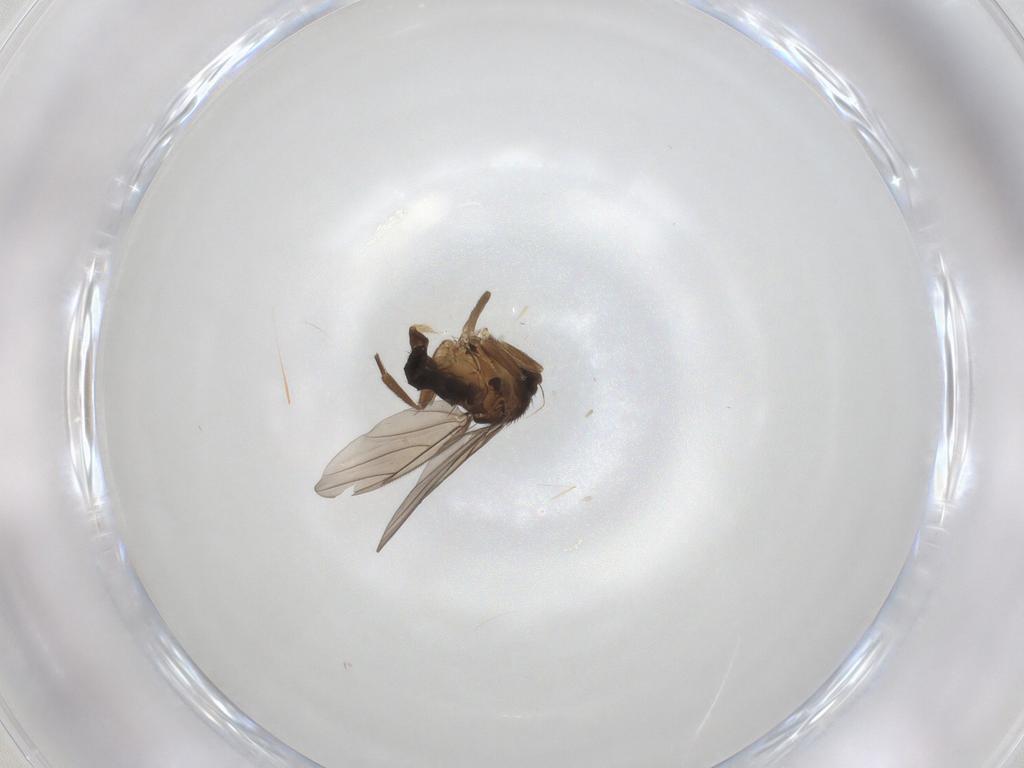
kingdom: Animalia
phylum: Arthropoda
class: Insecta
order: Diptera
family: Phoridae
